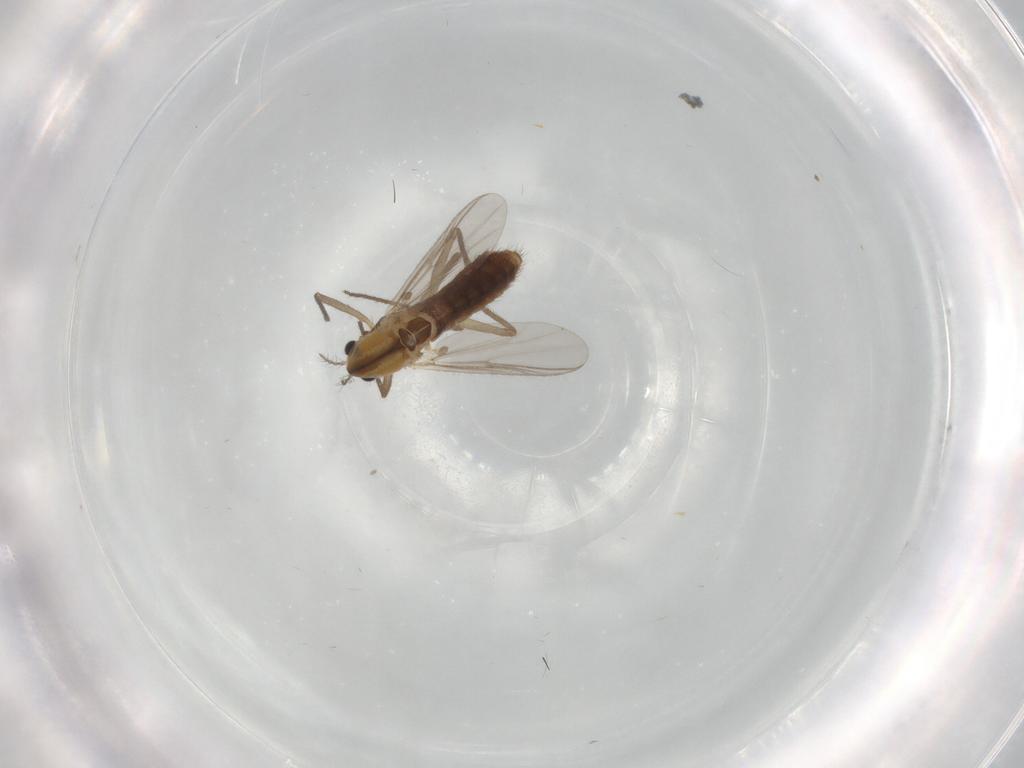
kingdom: Animalia
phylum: Arthropoda
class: Insecta
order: Diptera
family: Chironomidae
